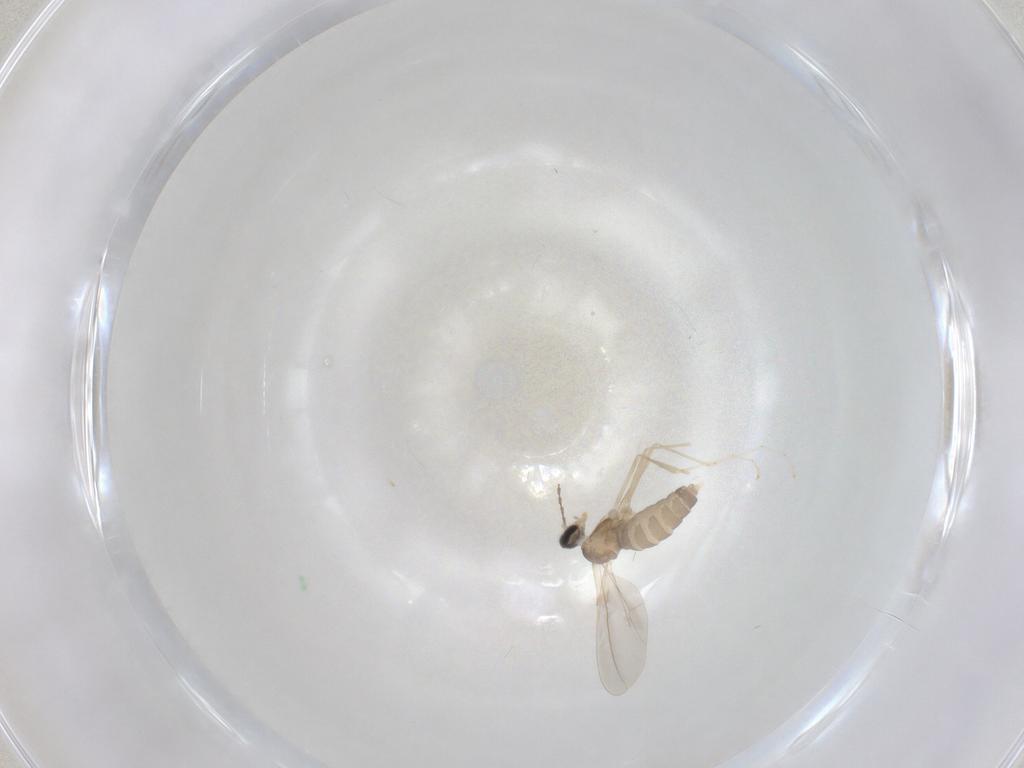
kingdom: Animalia
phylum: Arthropoda
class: Insecta
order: Diptera
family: Cecidomyiidae
